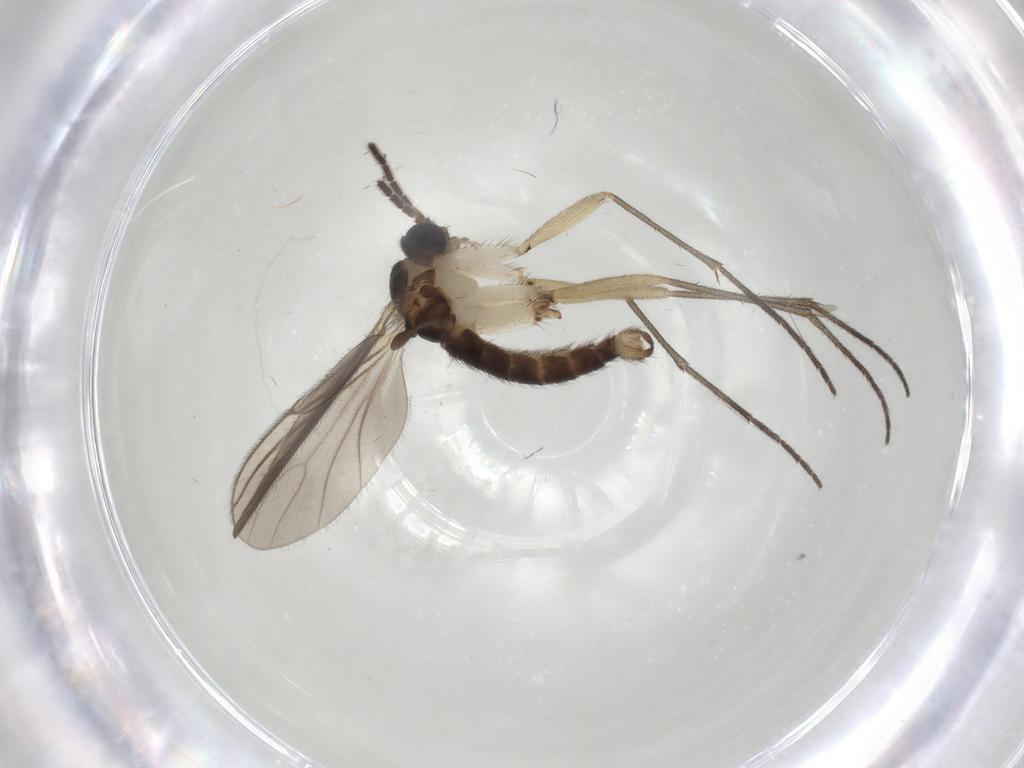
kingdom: Animalia
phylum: Arthropoda
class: Insecta
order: Diptera
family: Sciaridae
